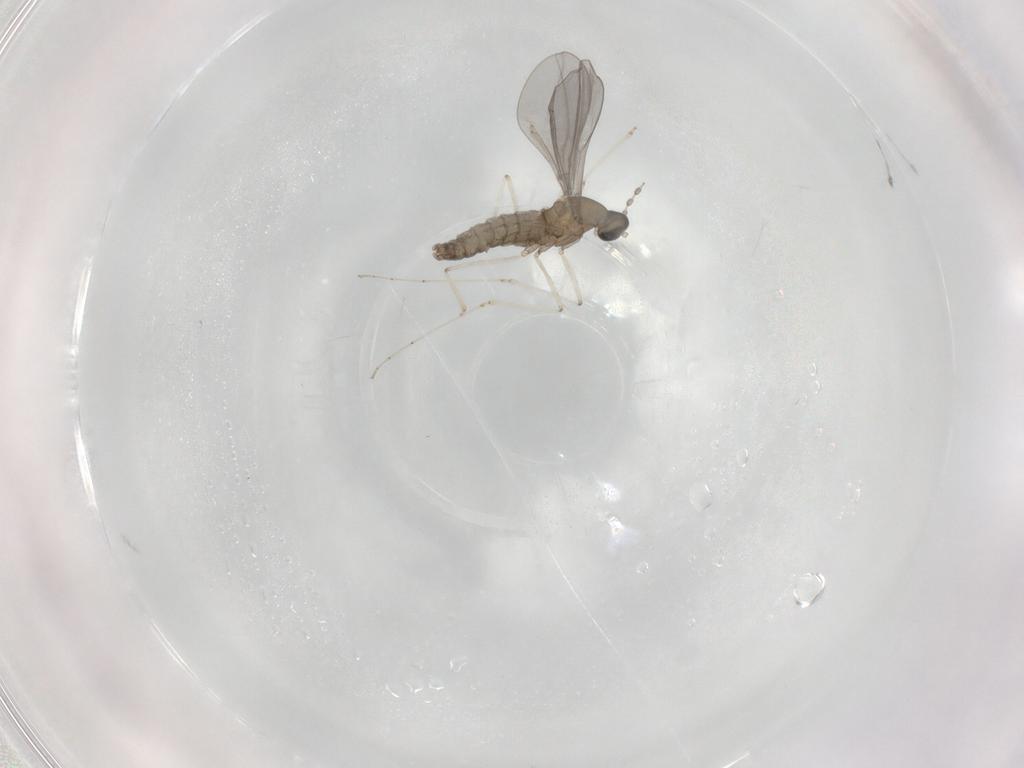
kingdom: Animalia
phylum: Arthropoda
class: Insecta
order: Diptera
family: Cecidomyiidae
